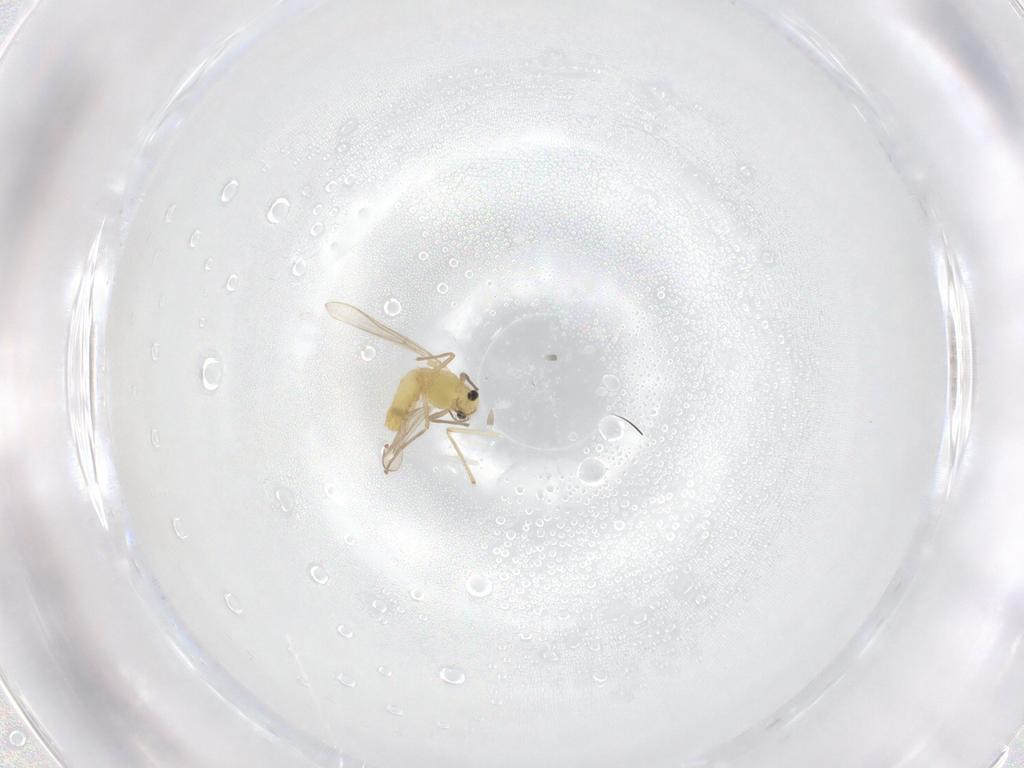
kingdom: Animalia
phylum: Arthropoda
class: Insecta
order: Diptera
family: Chironomidae
